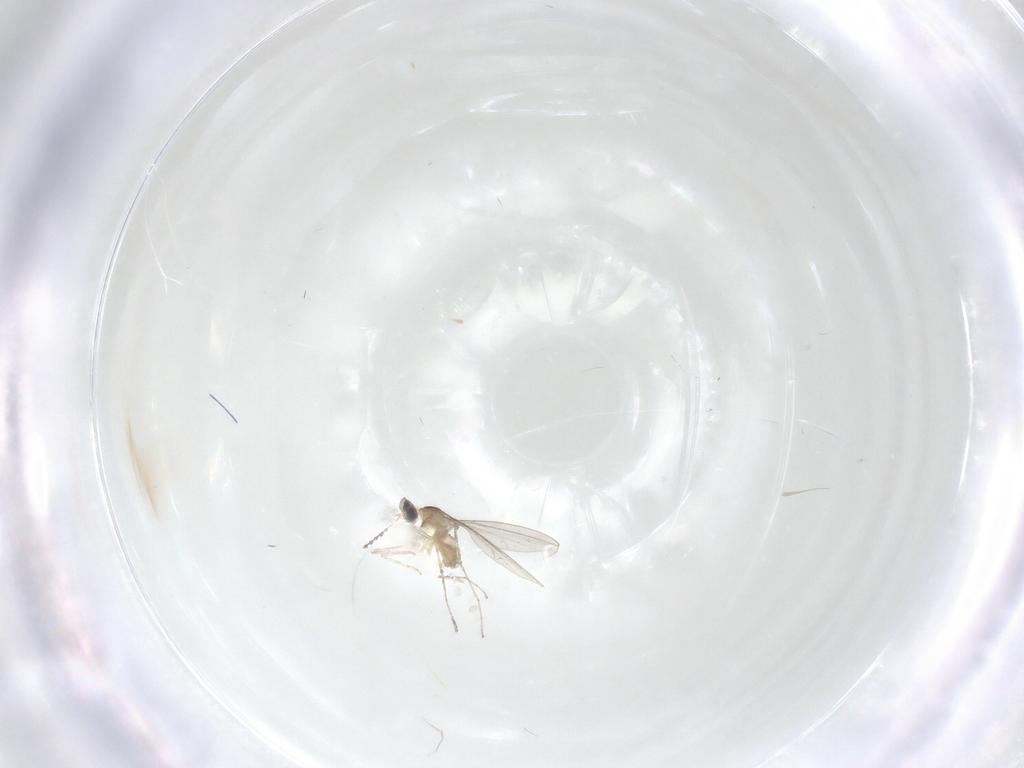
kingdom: Animalia
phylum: Arthropoda
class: Insecta
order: Diptera
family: Cecidomyiidae
